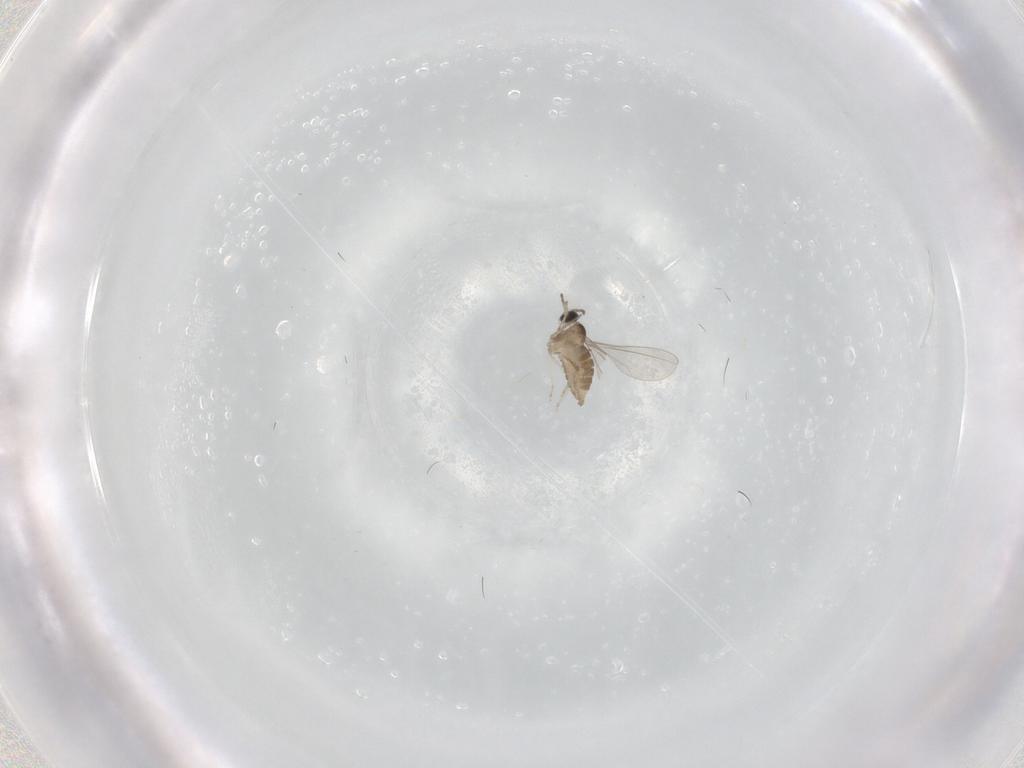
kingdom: Animalia
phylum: Arthropoda
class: Insecta
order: Diptera
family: Cecidomyiidae
